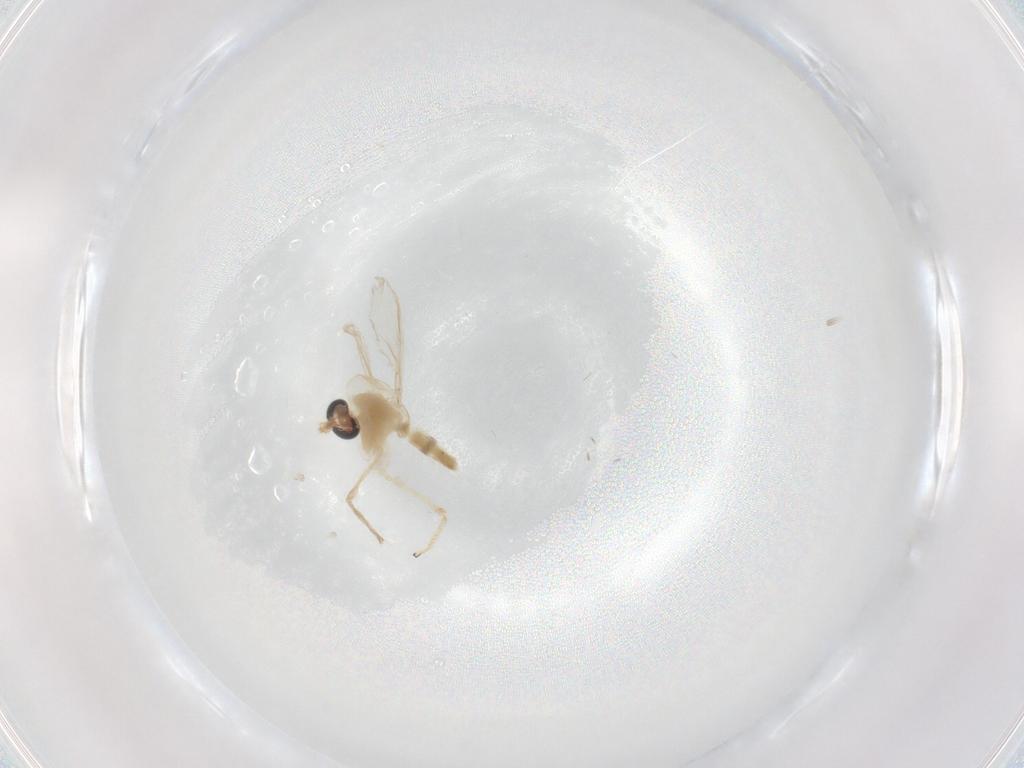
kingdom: Animalia
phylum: Arthropoda
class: Insecta
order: Diptera
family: Chironomidae
